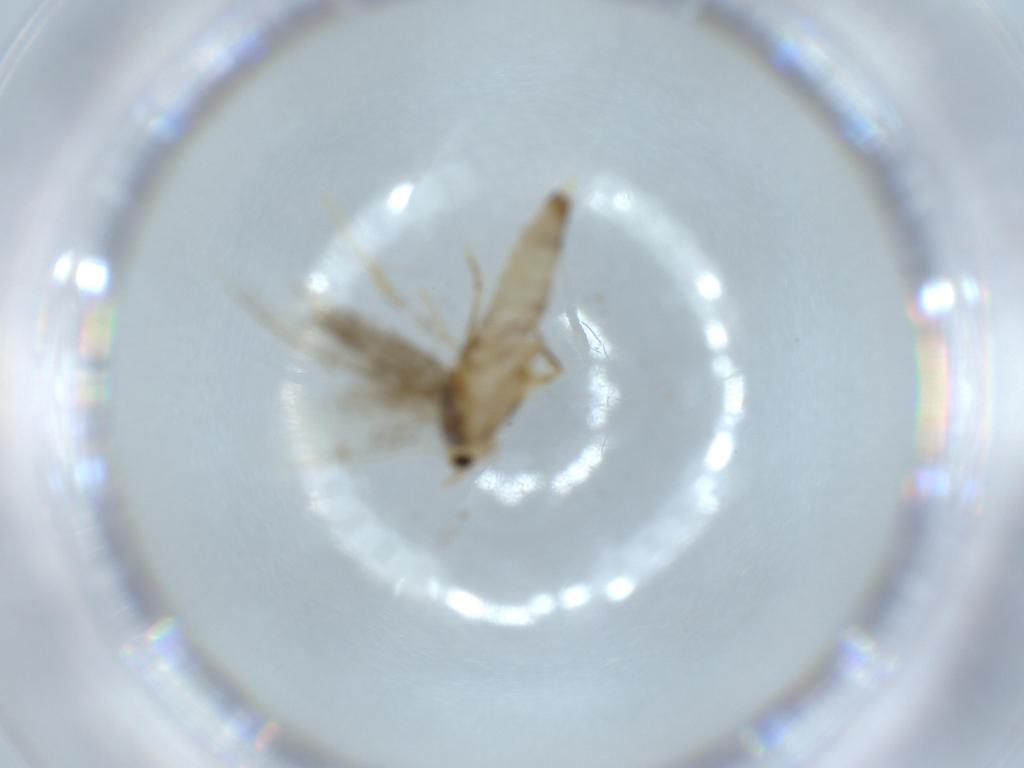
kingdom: Animalia
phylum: Arthropoda
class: Insecta
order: Lepidoptera
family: Tineidae
